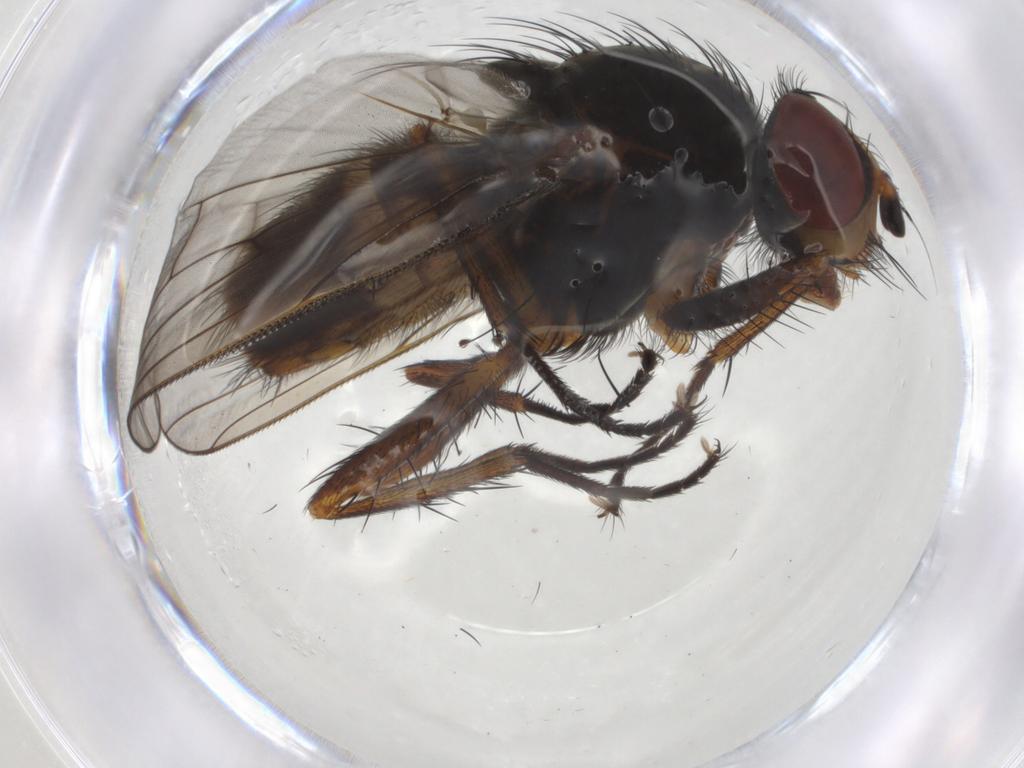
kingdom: Animalia
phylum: Arthropoda
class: Insecta
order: Diptera
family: Anthomyiidae
